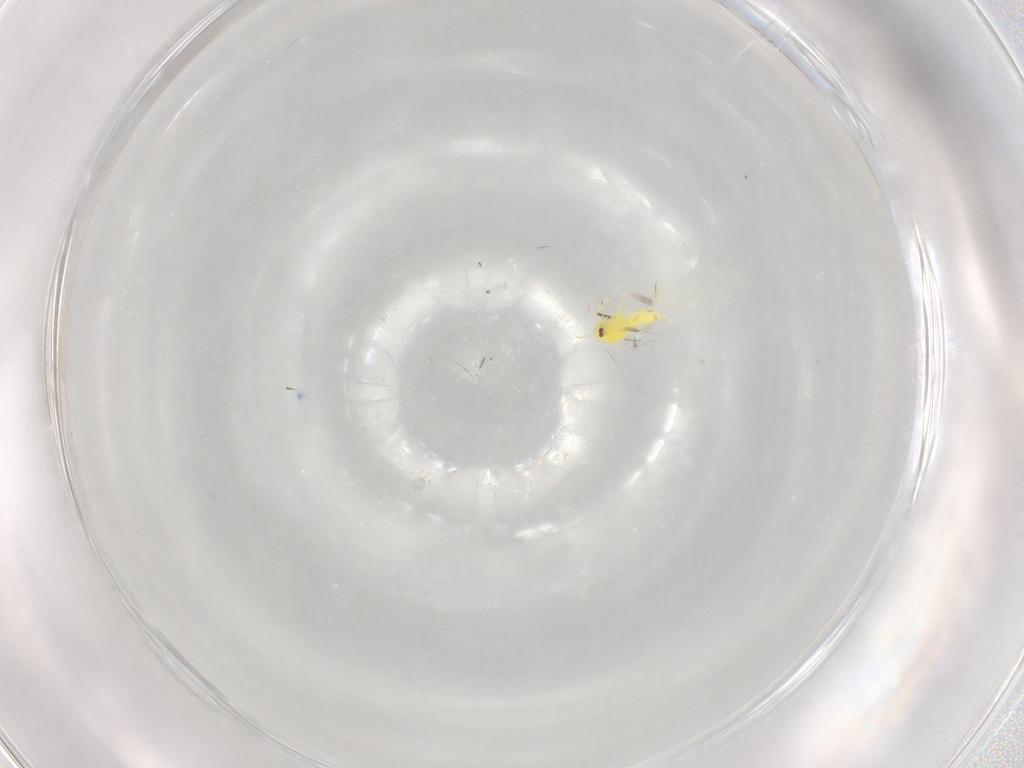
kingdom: Animalia
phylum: Arthropoda
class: Insecta
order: Hemiptera
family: Aleyrodidae
